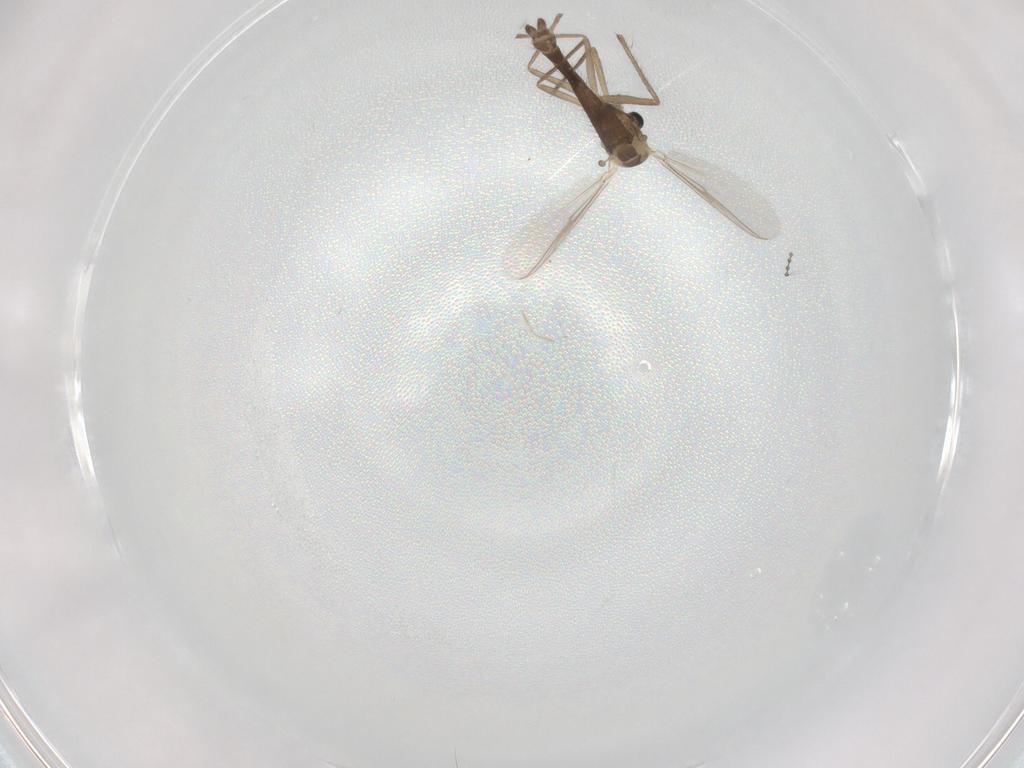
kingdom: Animalia
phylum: Arthropoda
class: Insecta
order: Diptera
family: Chironomidae
